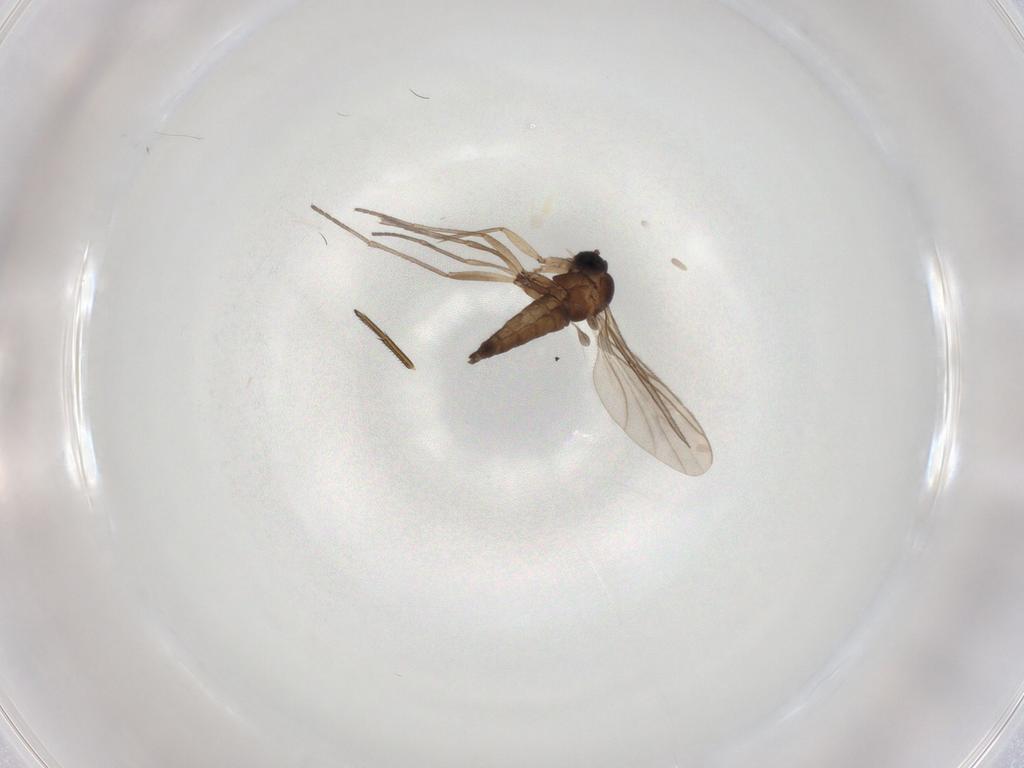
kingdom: Animalia
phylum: Arthropoda
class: Insecta
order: Diptera
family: Sciaridae
